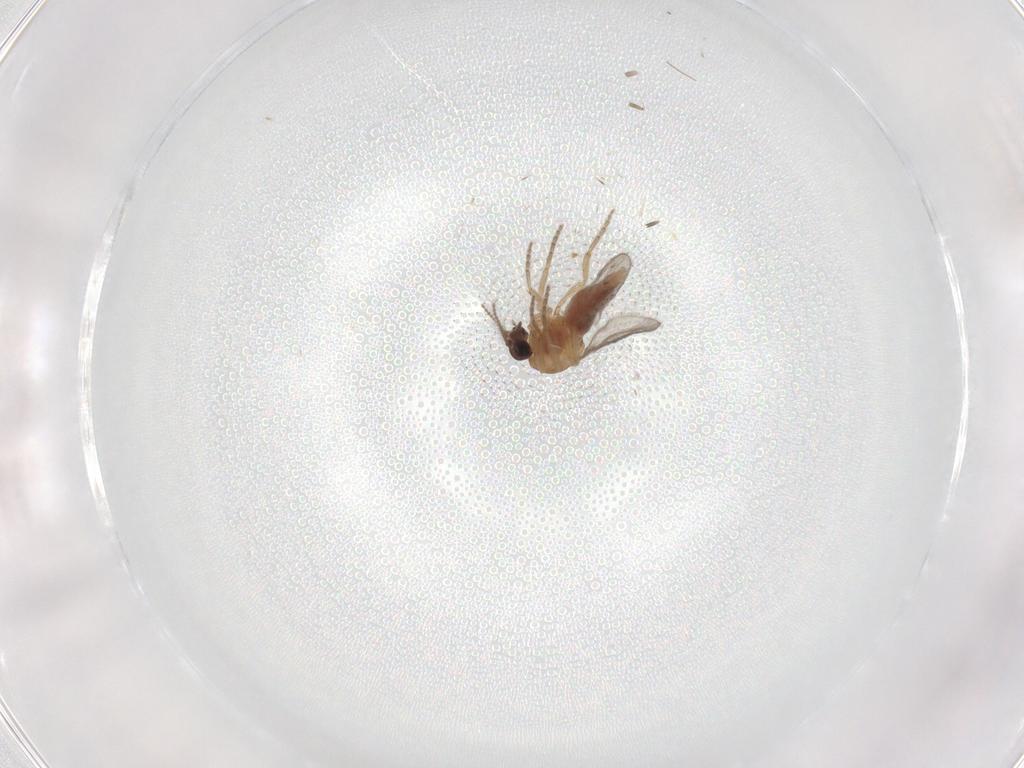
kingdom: Animalia
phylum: Arthropoda
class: Insecta
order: Diptera
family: Ceratopogonidae
